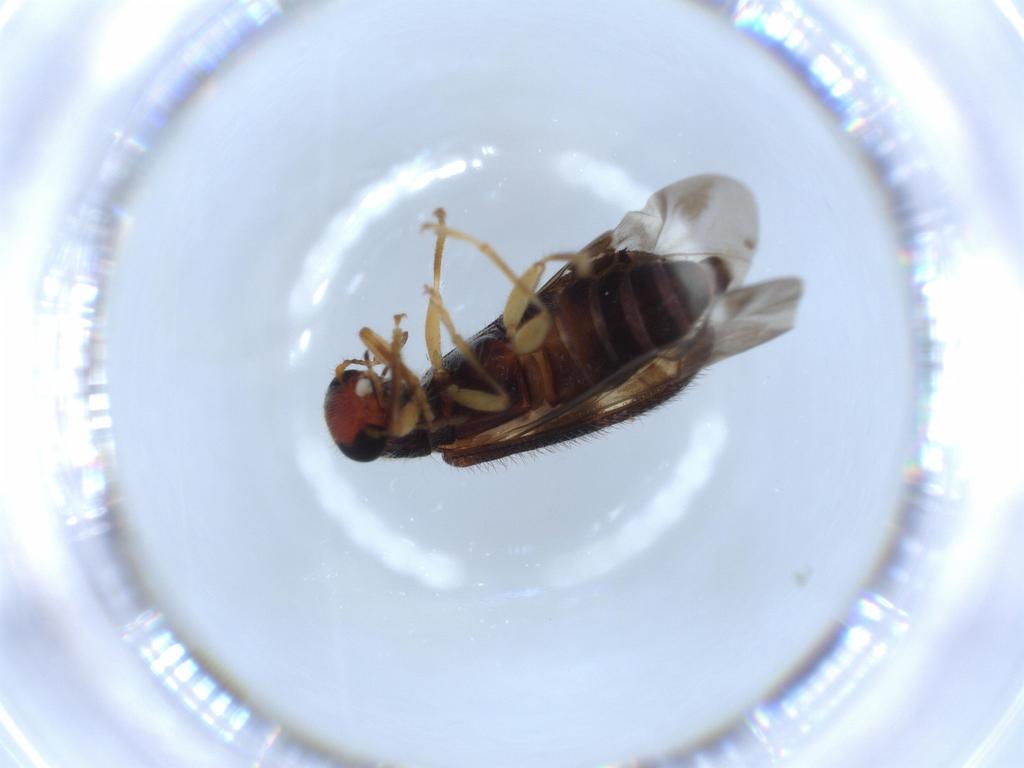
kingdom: Animalia
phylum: Arthropoda
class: Insecta
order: Coleoptera
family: Cleridae
